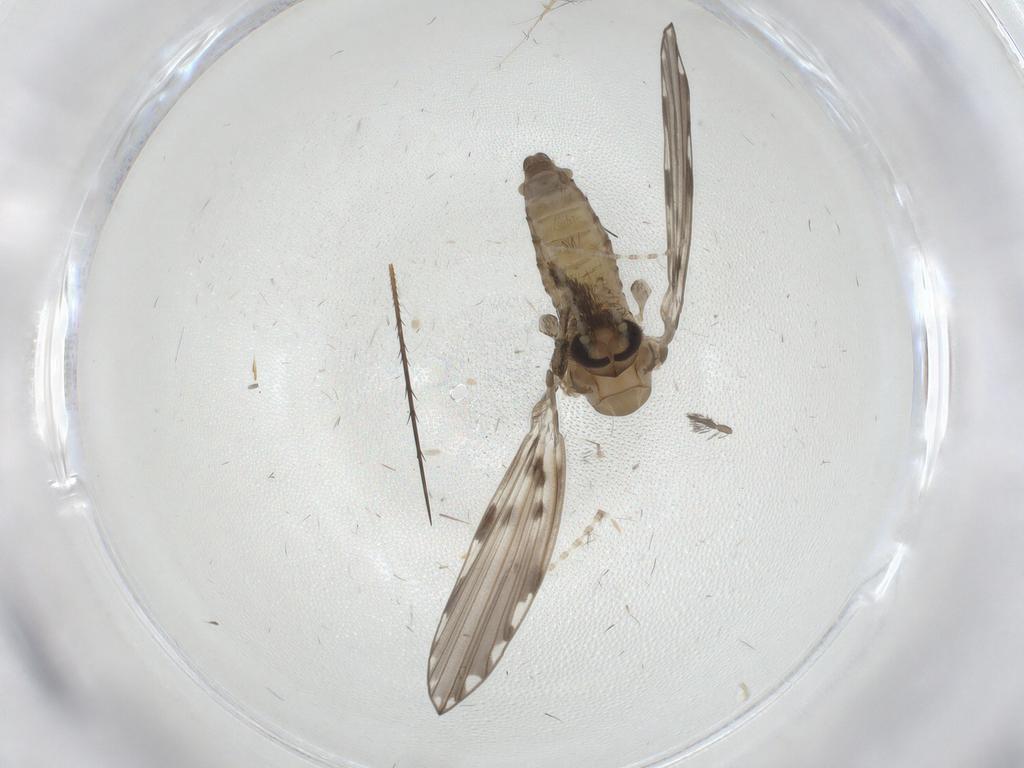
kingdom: Animalia
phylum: Arthropoda
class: Insecta
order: Diptera
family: Psychodidae
